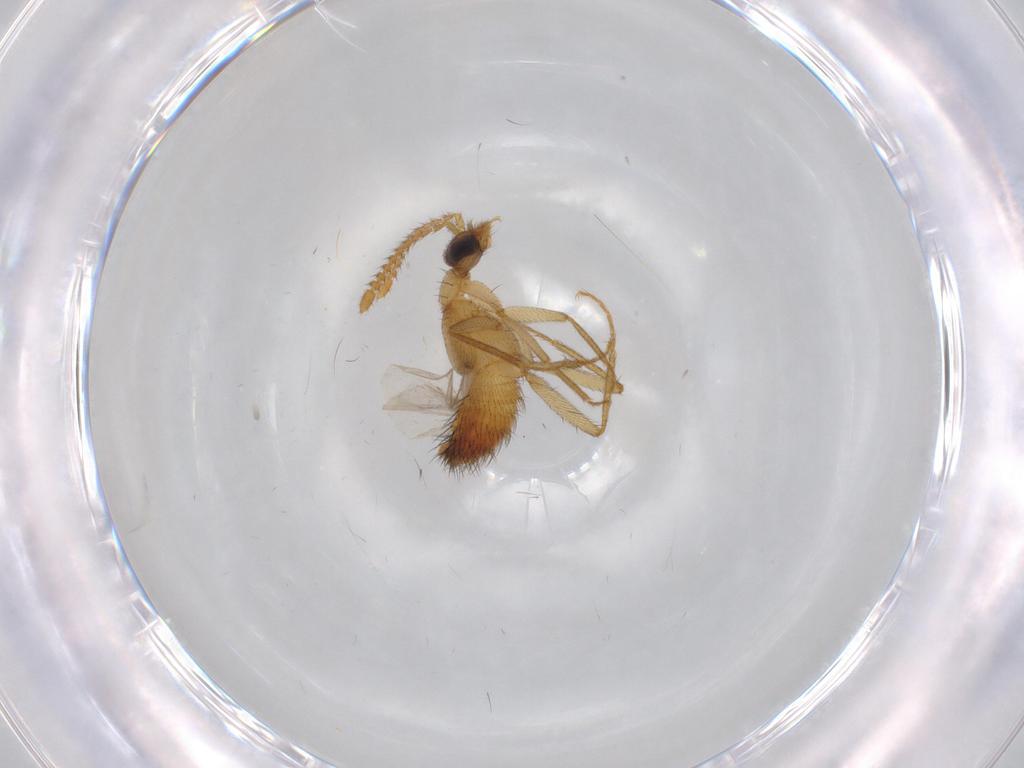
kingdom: Animalia
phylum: Arthropoda
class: Insecta
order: Coleoptera
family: Staphylinidae
